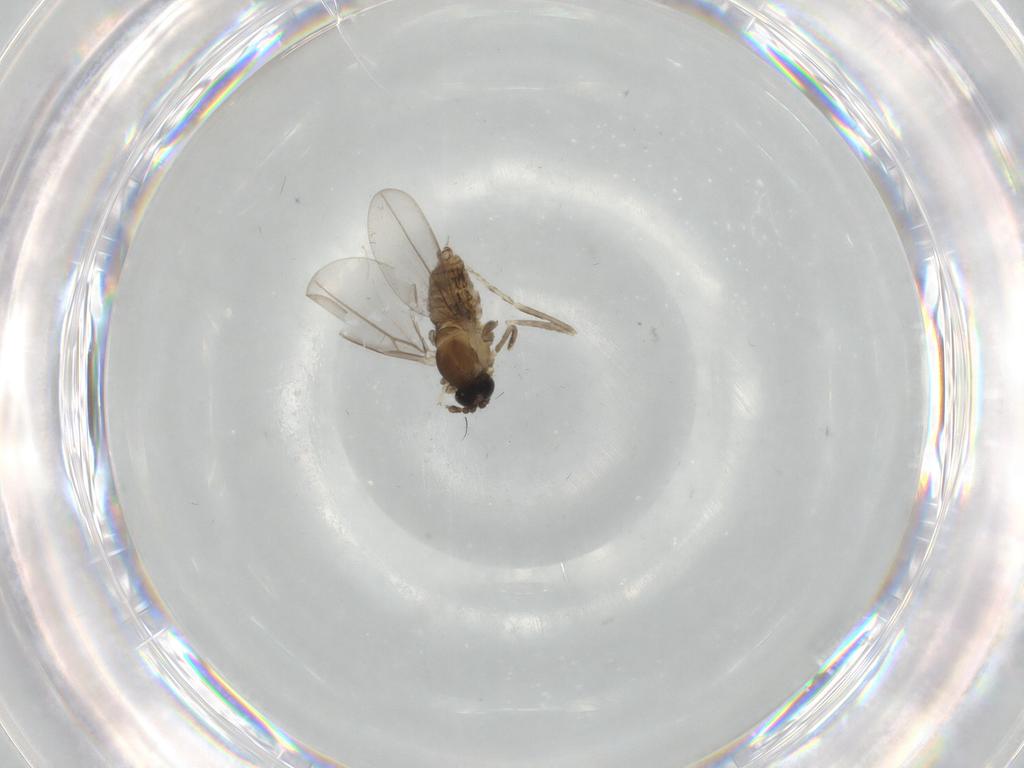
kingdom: Animalia
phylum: Arthropoda
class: Insecta
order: Diptera
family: Cecidomyiidae
